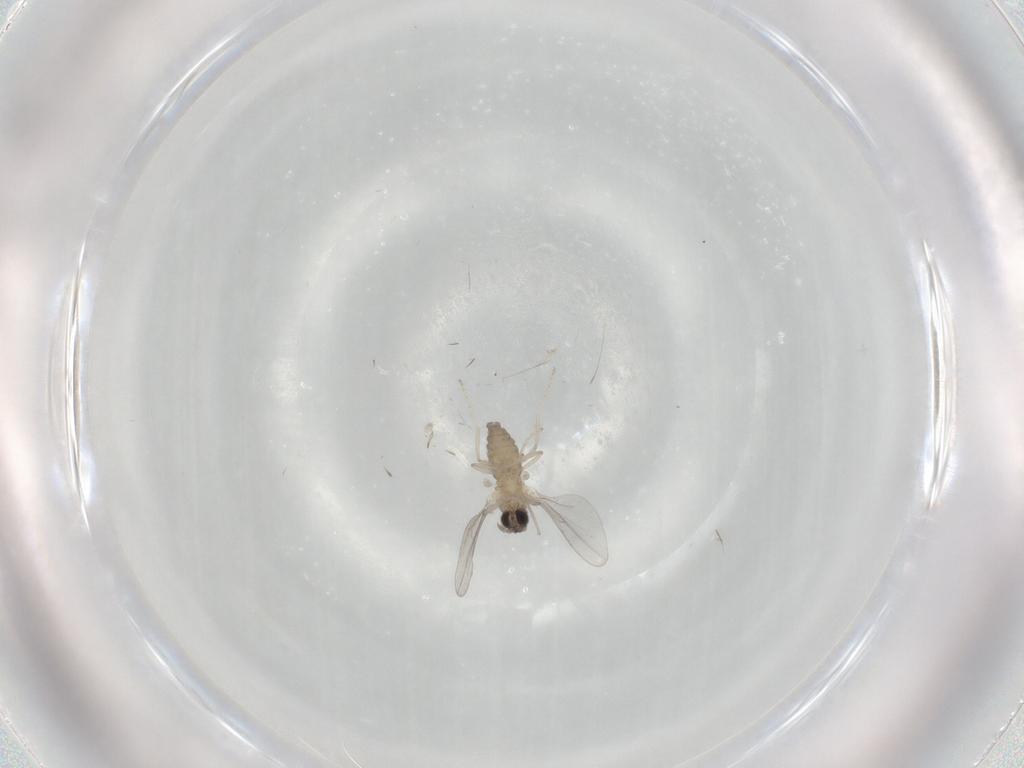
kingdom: Animalia
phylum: Arthropoda
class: Insecta
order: Diptera
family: Cecidomyiidae
